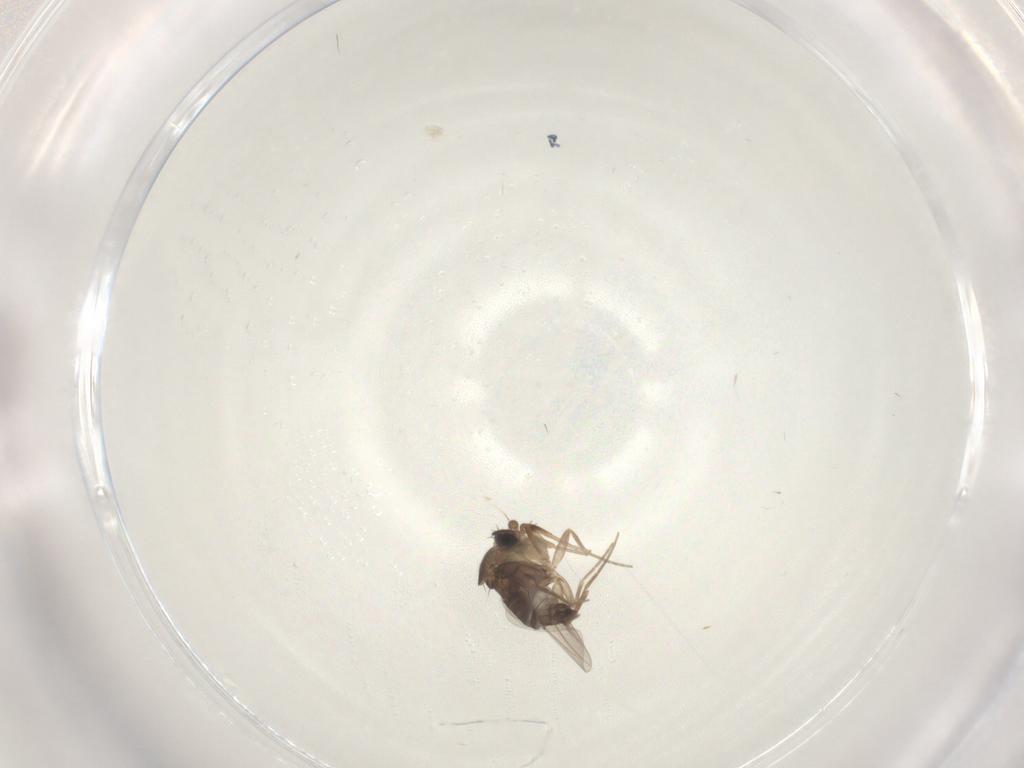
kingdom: Animalia
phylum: Arthropoda
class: Insecta
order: Diptera
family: Phoridae
